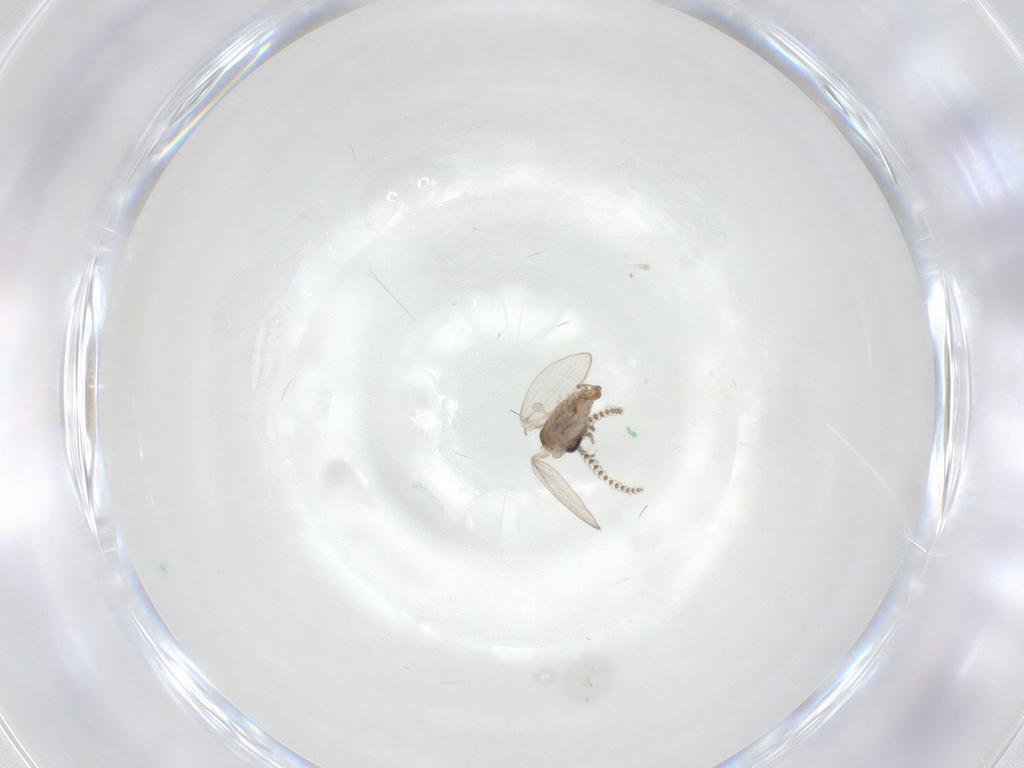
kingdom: Animalia
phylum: Arthropoda
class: Insecta
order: Diptera
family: Psychodidae
